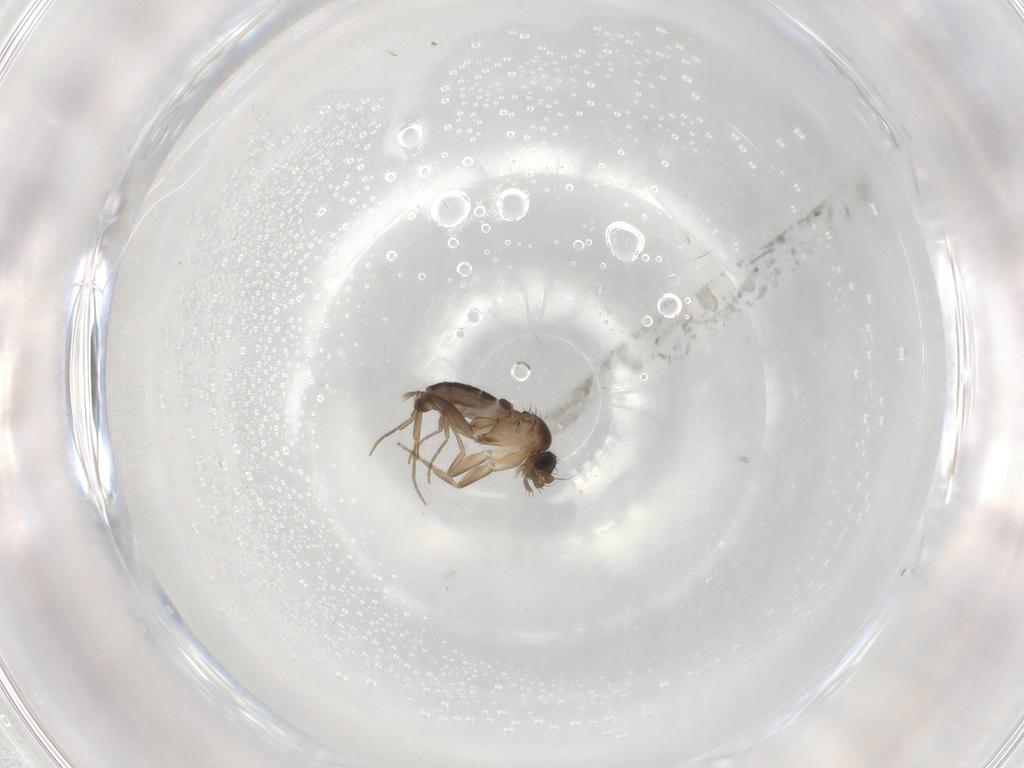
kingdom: Animalia
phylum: Arthropoda
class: Insecta
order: Diptera
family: Phoridae
